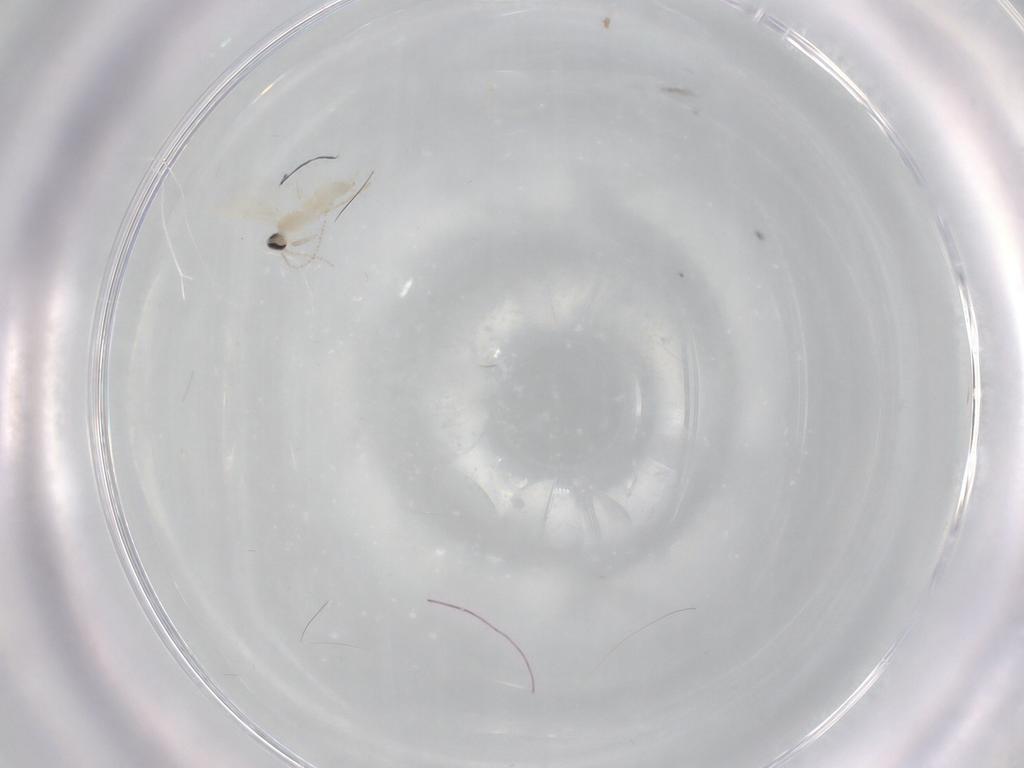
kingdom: Animalia
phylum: Arthropoda
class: Insecta
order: Diptera
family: Cecidomyiidae
